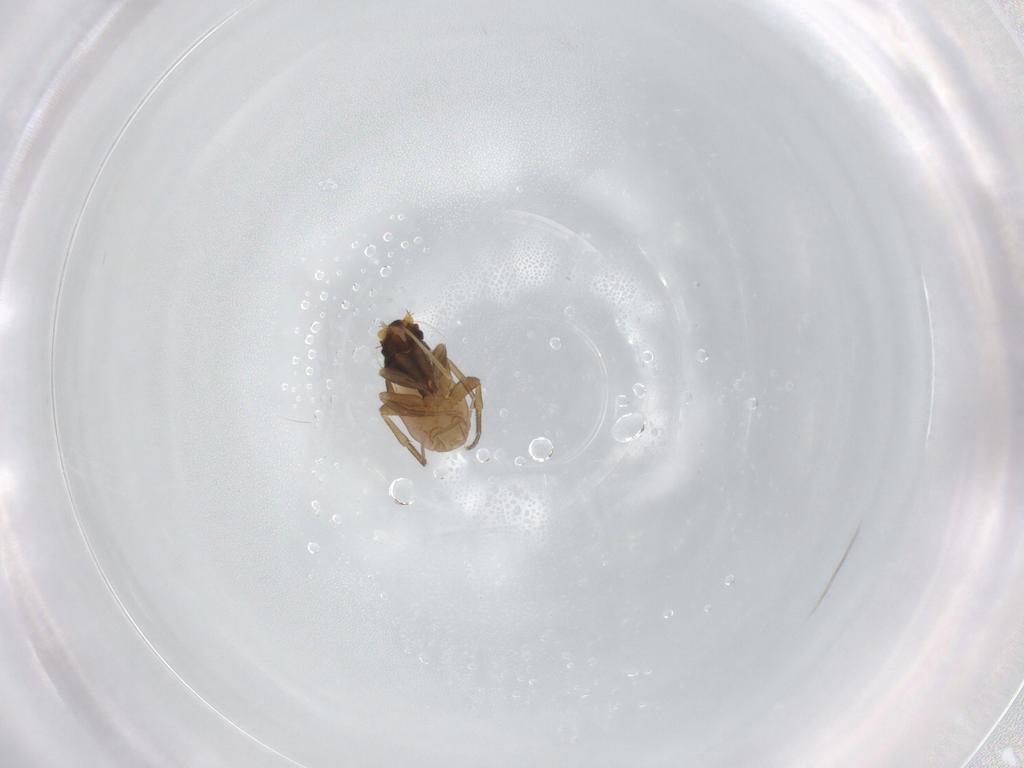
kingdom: Animalia
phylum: Arthropoda
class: Insecta
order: Diptera
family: Phoridae
